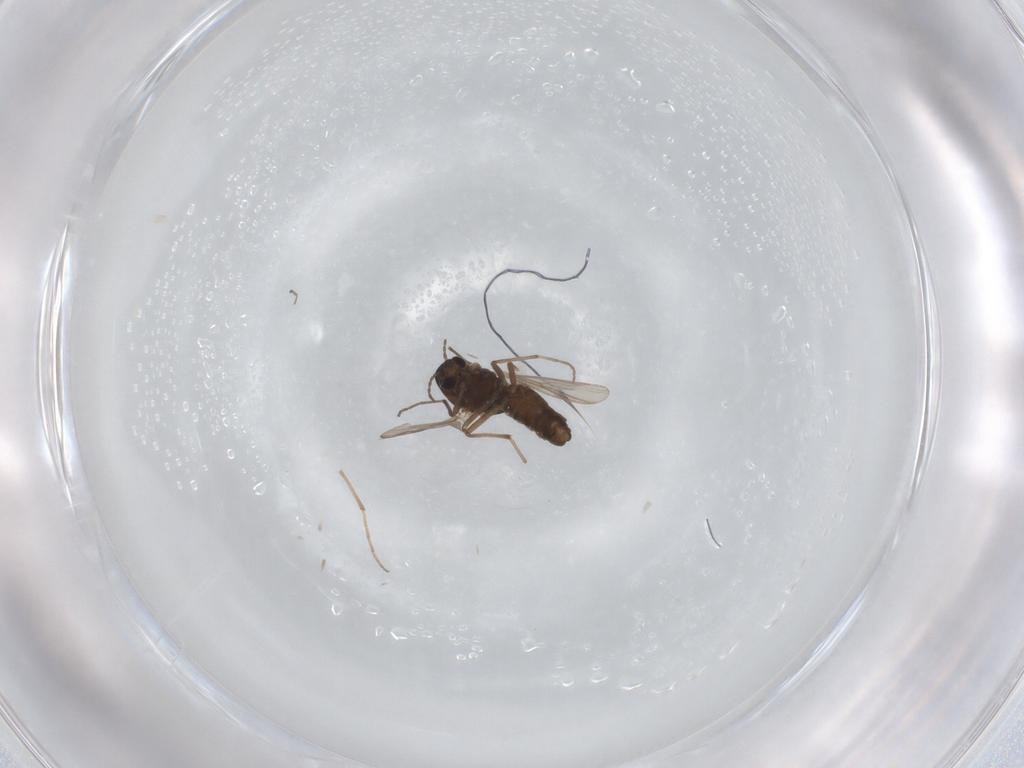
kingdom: Animalia
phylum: Arthropoda
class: Insecta
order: Diptera
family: Chironomidae
